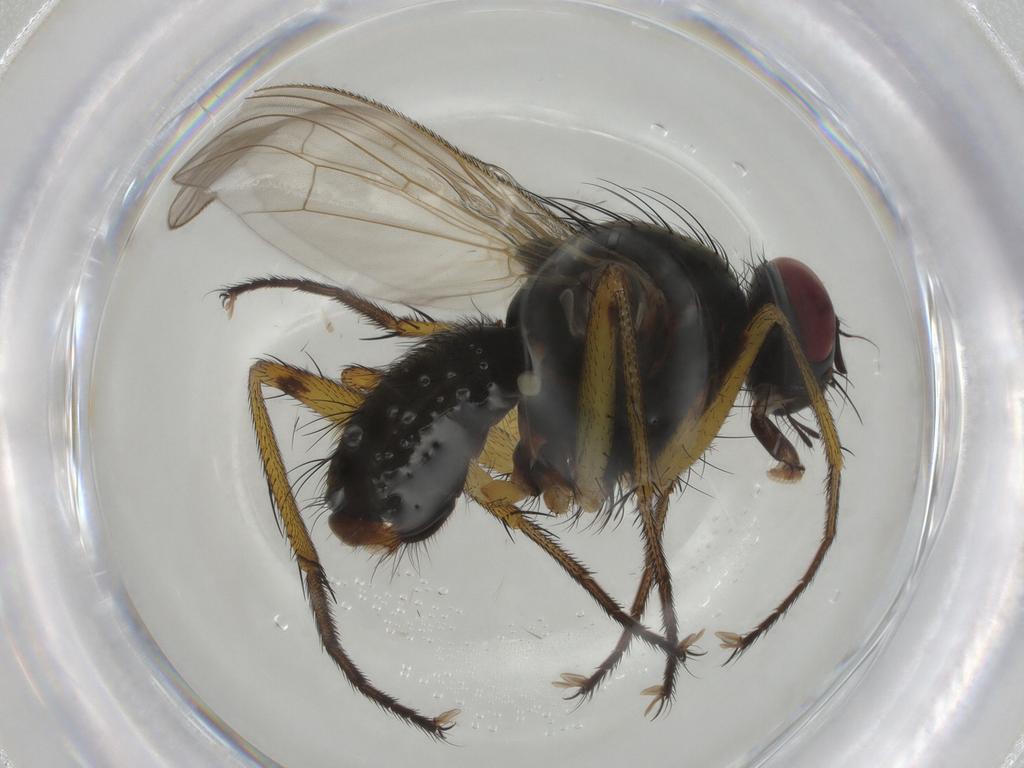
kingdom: Animalia
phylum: Arthropoda
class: Insecta
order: Diptera
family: Muscidae
